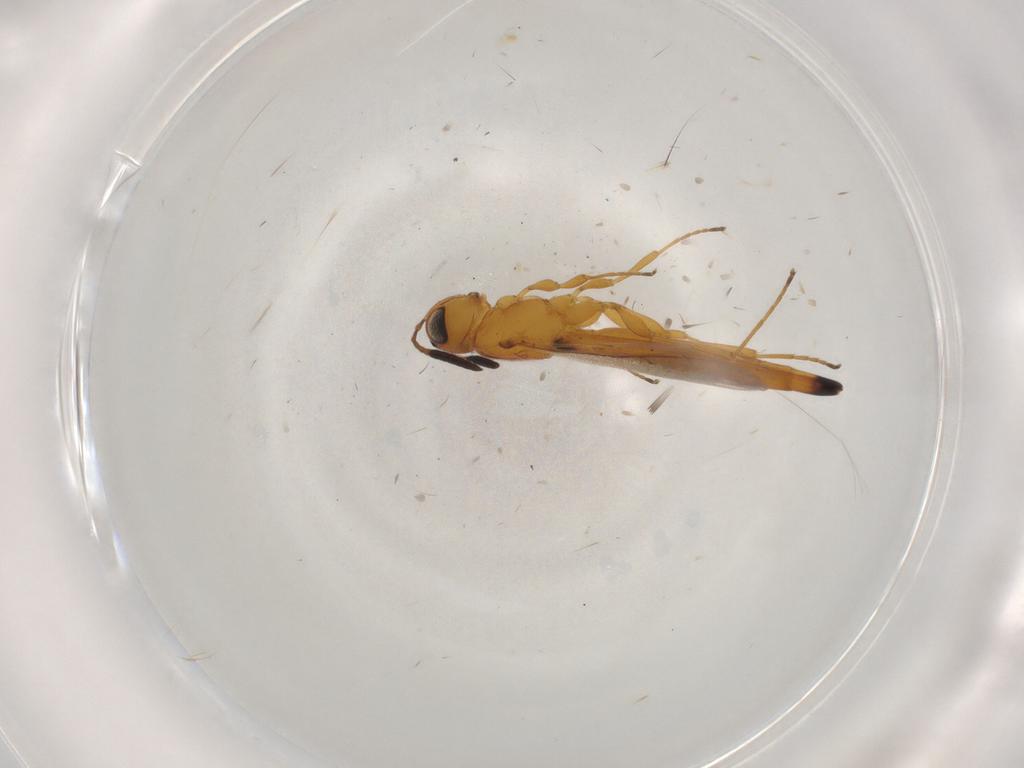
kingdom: Animalia
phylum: Arthropoda
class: Insecta
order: Hymenoptera
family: Scelionidae
